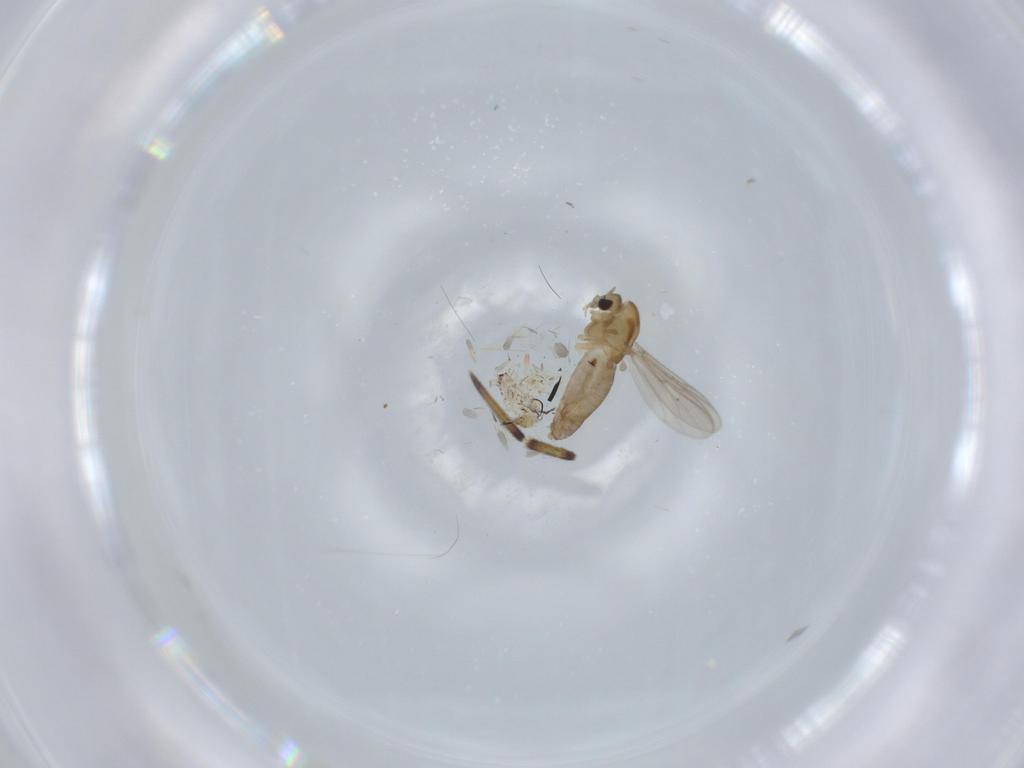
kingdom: Animalia
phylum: Arthropoda
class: Insecta
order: Diptera
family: Chironomidae
